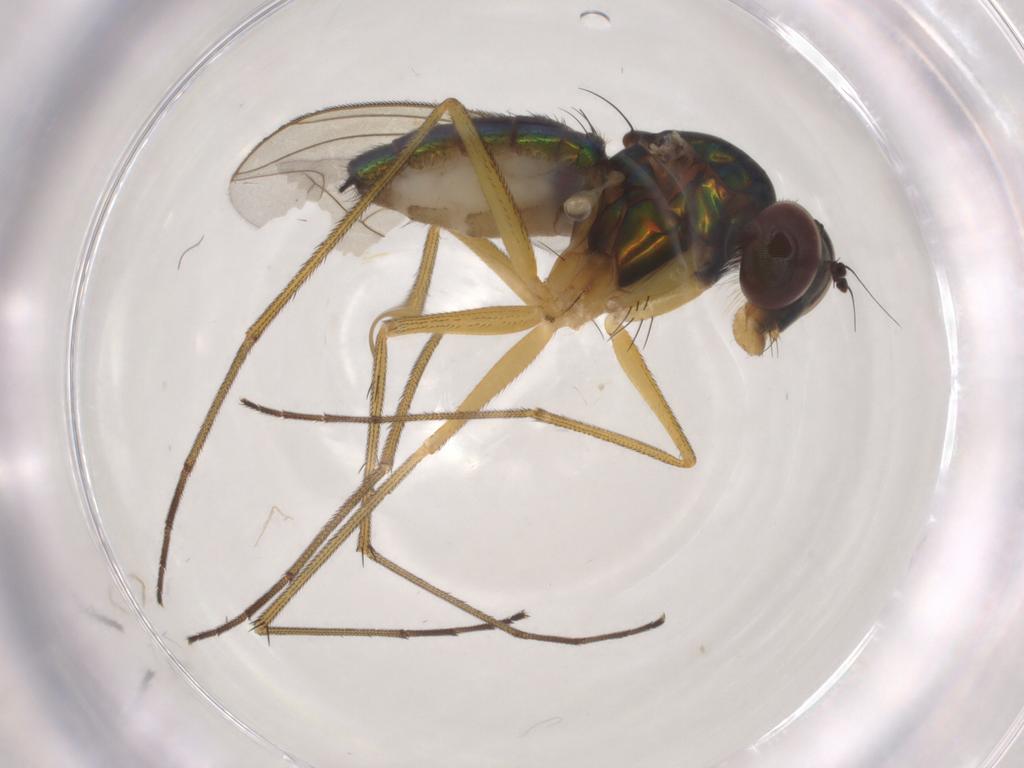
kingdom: Animalia
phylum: Arthropoda
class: Insecta
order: Diptera
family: Dolichopodidae
